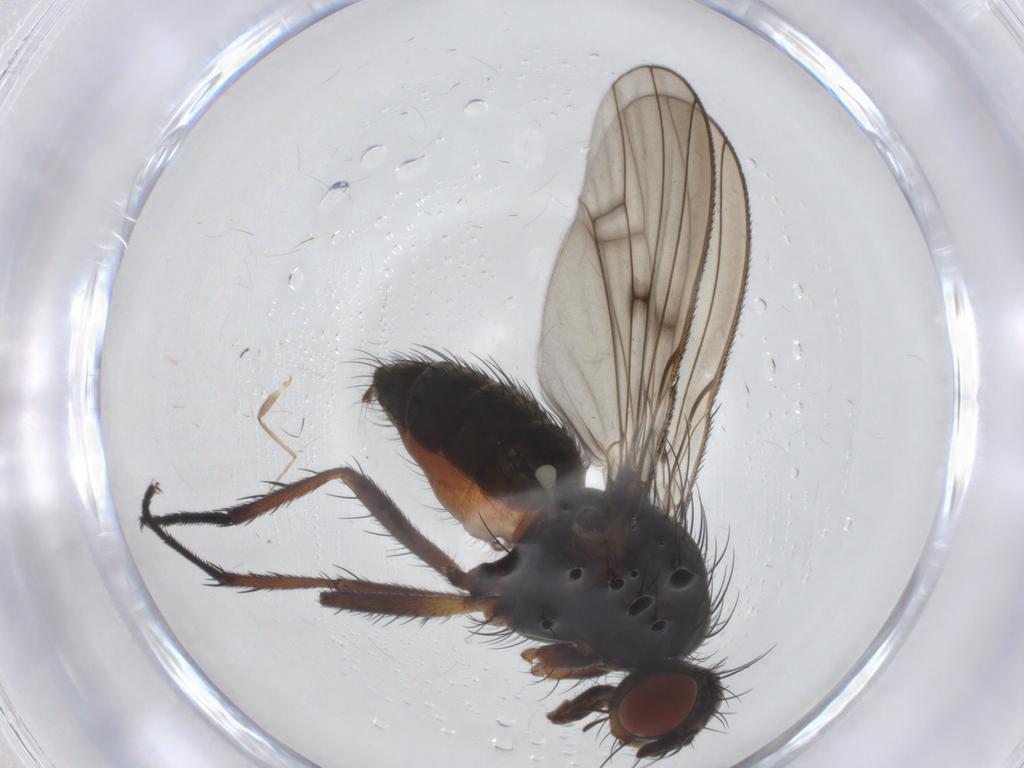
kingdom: Animalia
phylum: Arthropoda
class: Insecta
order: Diptera
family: Anthomyiidae
